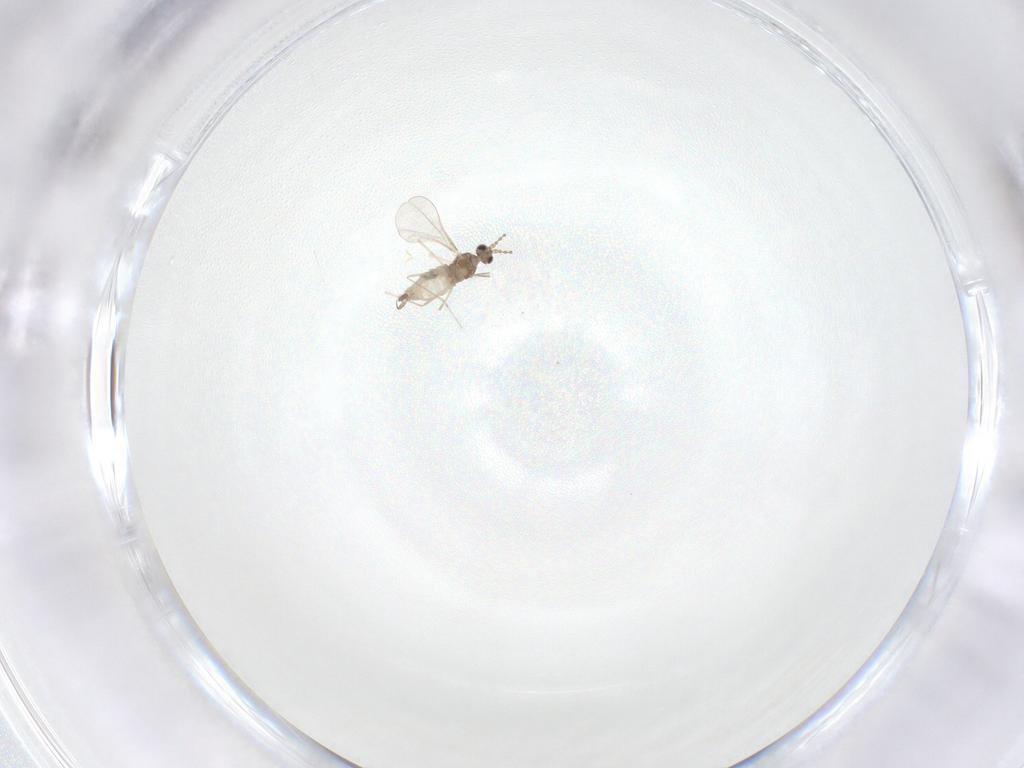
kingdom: Animalia
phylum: Arthropoda
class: Insecta
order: Diptera
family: Cecidomyiidae
